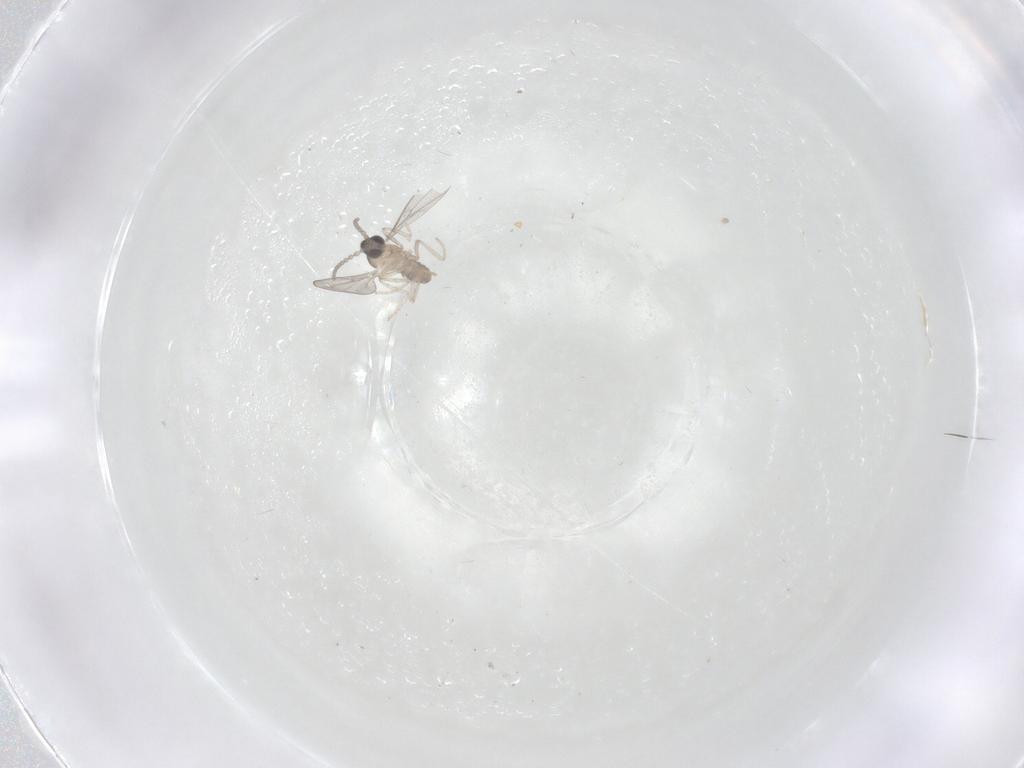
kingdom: Animalia
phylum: Arthropoda
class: Insecta
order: Diptera
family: Cecidomyiidae
